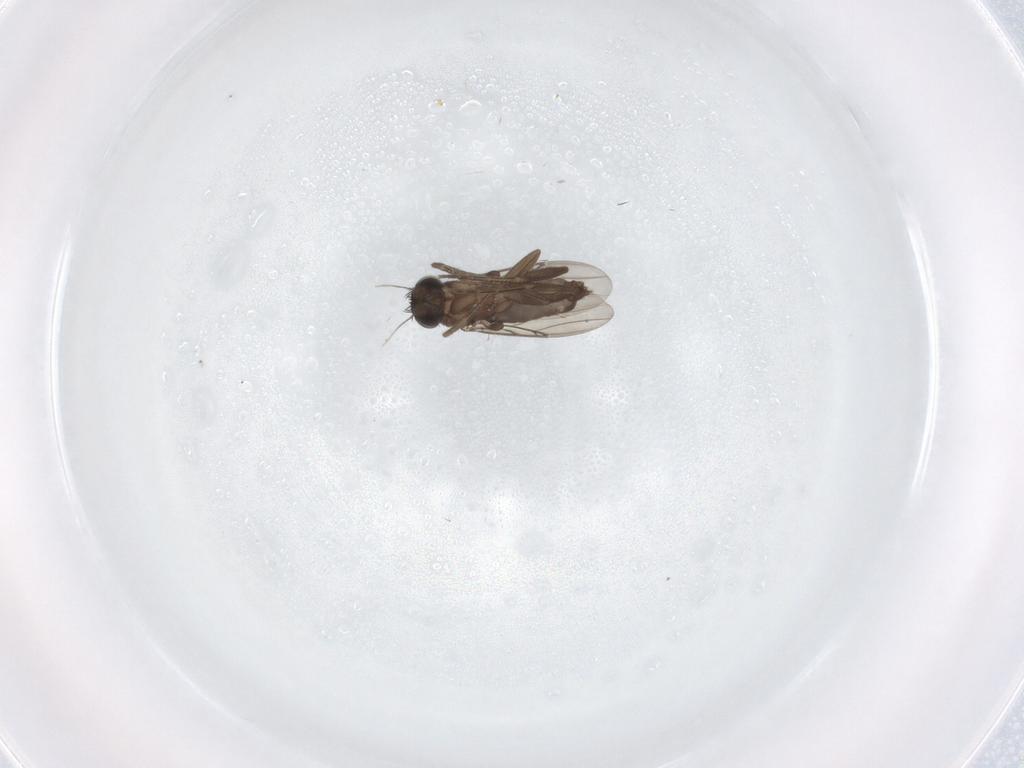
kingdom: Animalia
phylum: Arthropoda
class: Insecta
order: Diptera
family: Phoridae
